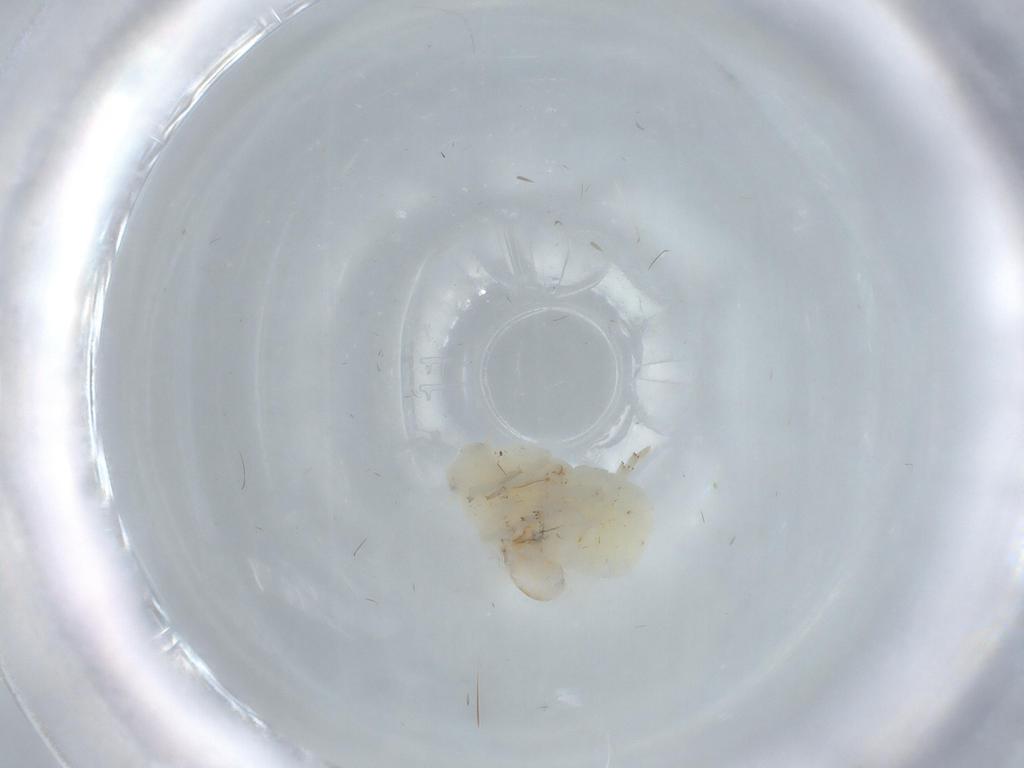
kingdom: Animalia
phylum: Arthropoda
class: Insecta
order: Hemiptera
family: Flatidae
